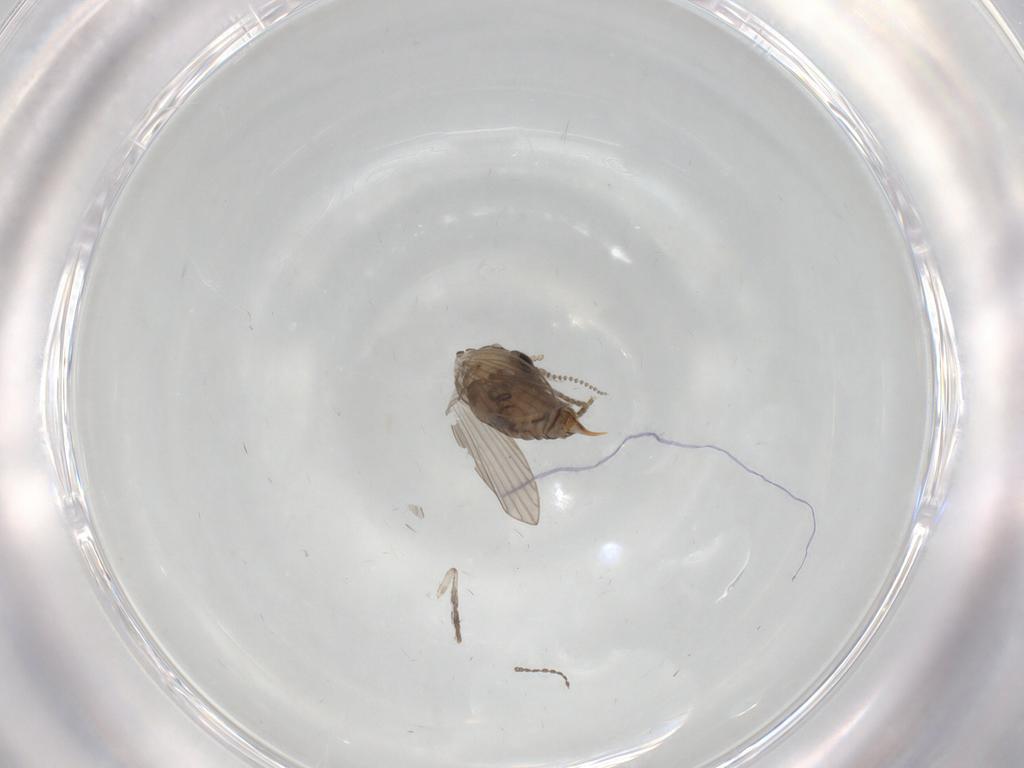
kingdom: Animalia
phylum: Arthropoda
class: Insecta
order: Diptera
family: Psychodidae
